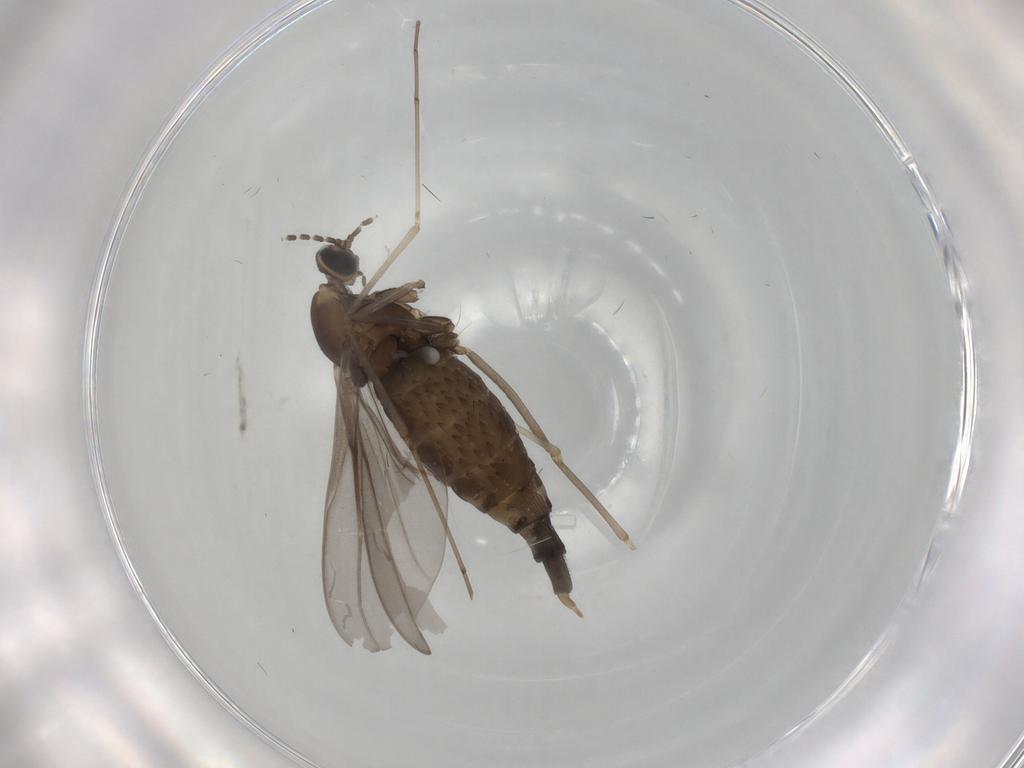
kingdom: Animalia
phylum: Arthropoda
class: Insecta
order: Diptera
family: Cecidomyiidae
